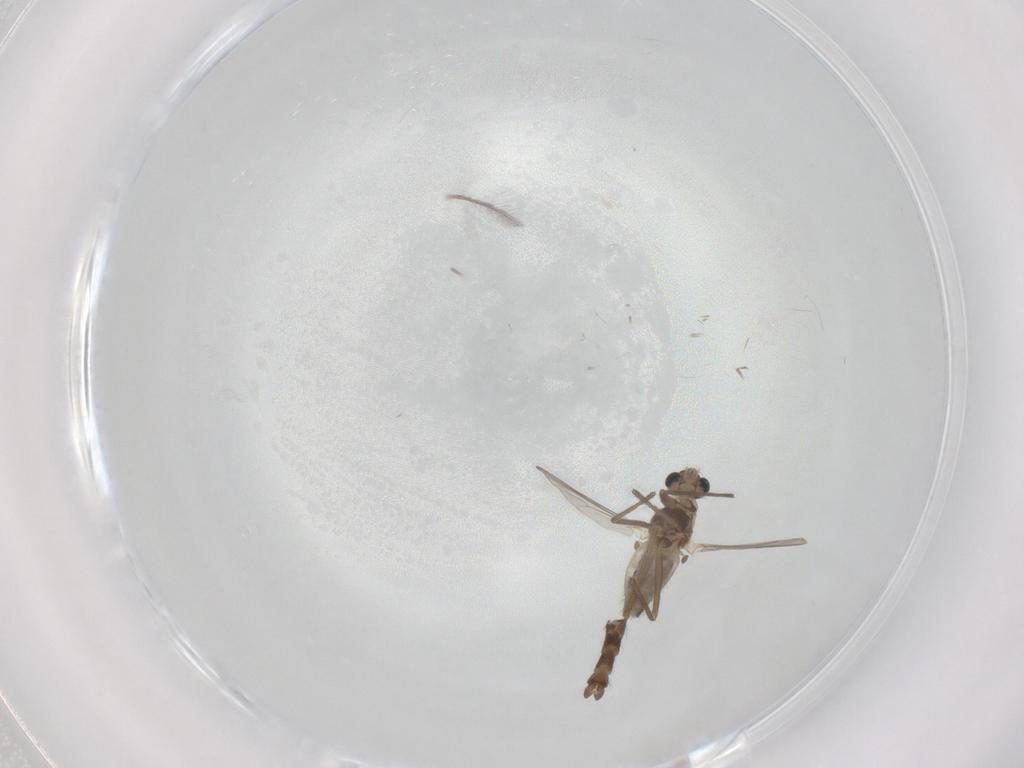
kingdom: Animalia
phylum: Arthropoda
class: Insecta
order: Diptera
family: Chironomidae
